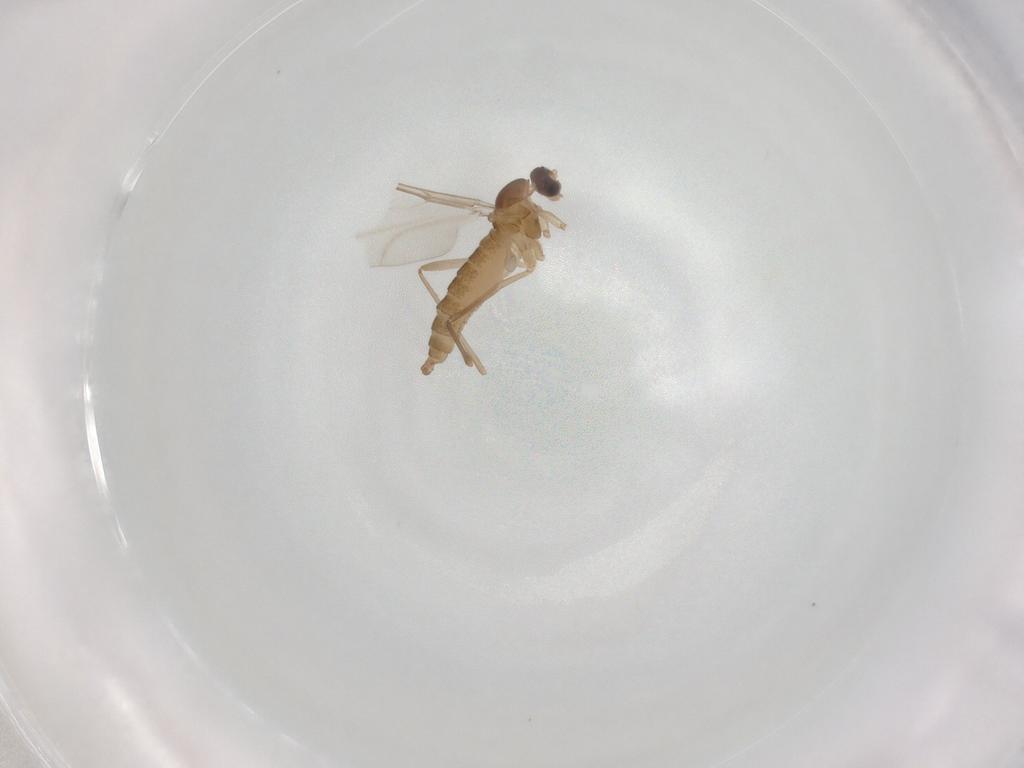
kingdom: Animalia
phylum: Arthropoda
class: Insecta
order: Diptera
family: Cecidomyiidae
